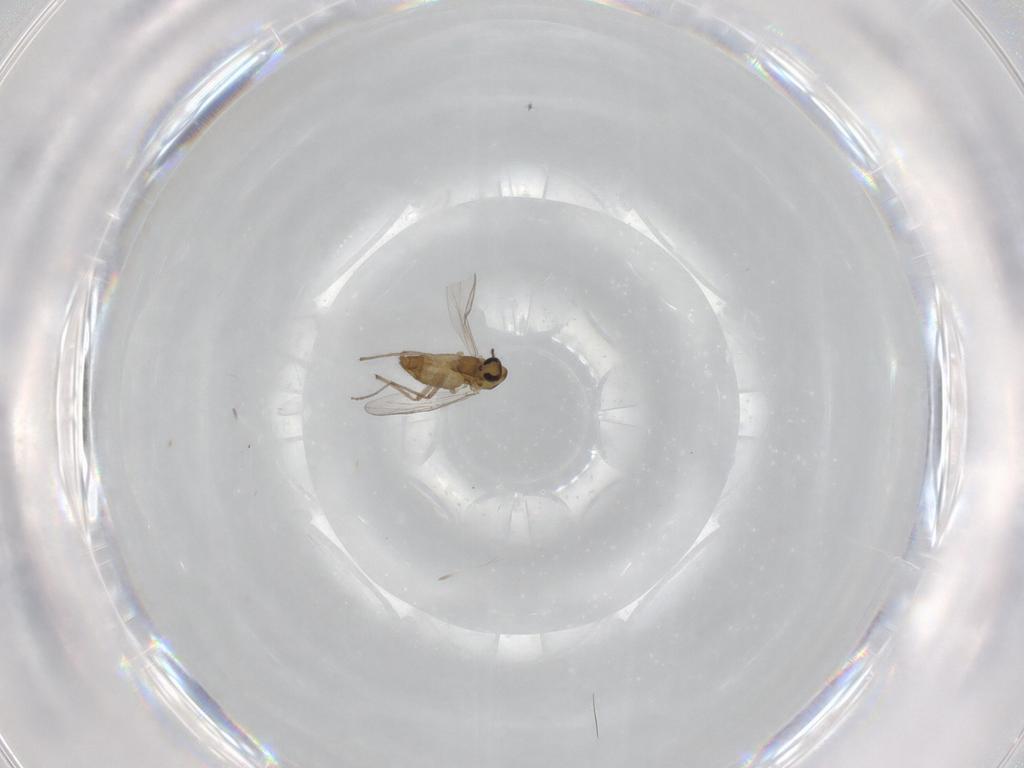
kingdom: Animalia
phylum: Arthropoda
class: Insecta
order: Diptera
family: Chironomidae
